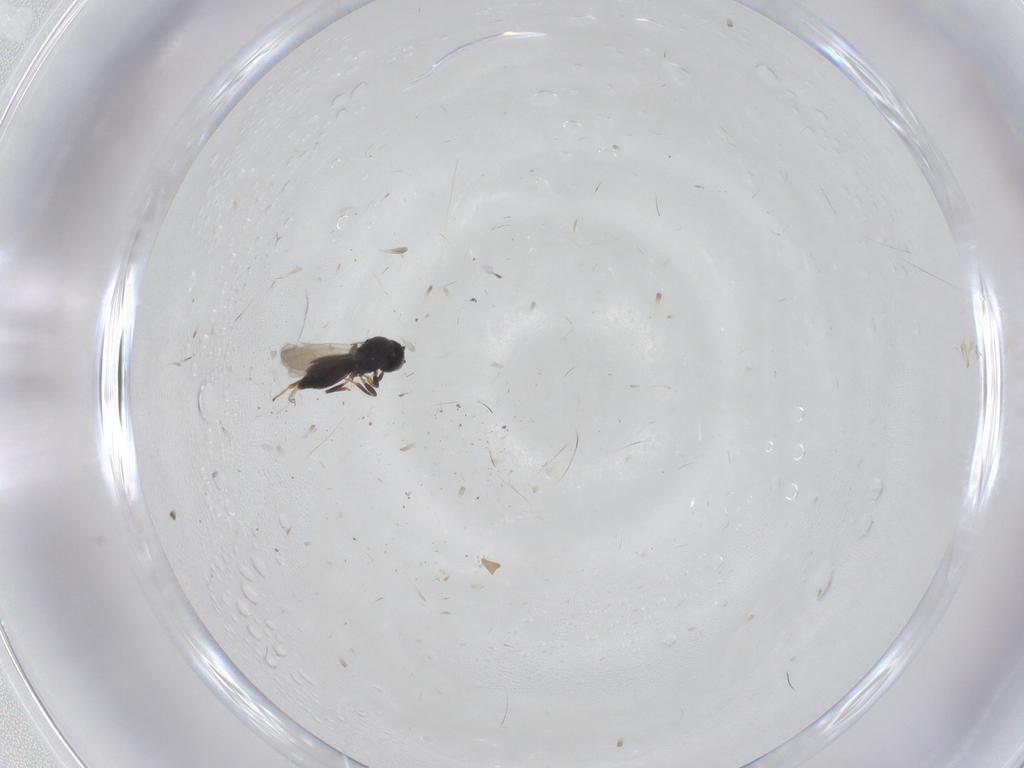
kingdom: Animalia
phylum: Arthropoda
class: Insecta
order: Hymenoptera
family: Platygastridae
